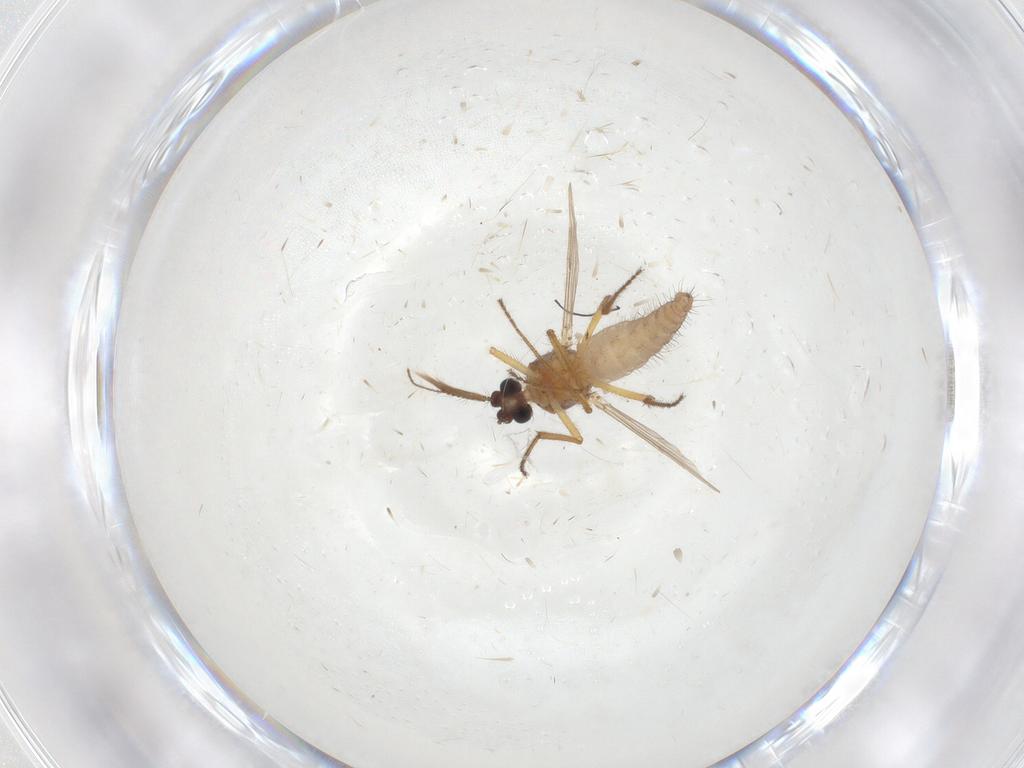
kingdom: Animalia
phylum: Arthropoda
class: Insecta
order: Diptera
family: Ceratopogonidae
